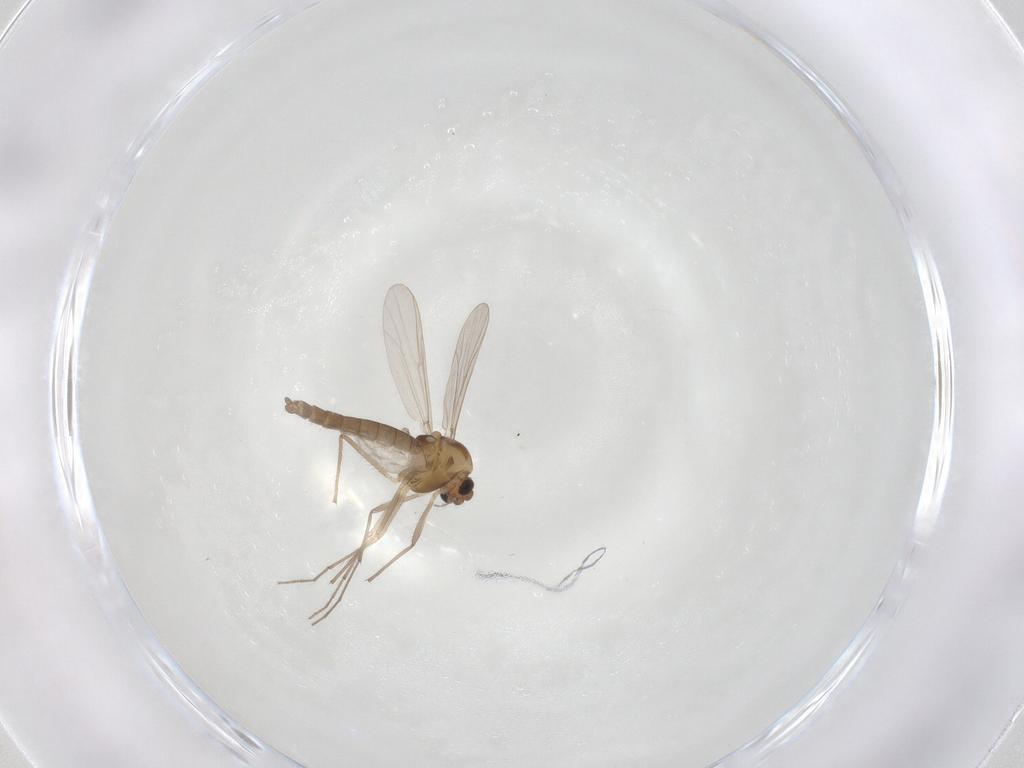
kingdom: Animalia
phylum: Arthropoda
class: Insecta
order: Diptera
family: Chironomidae
